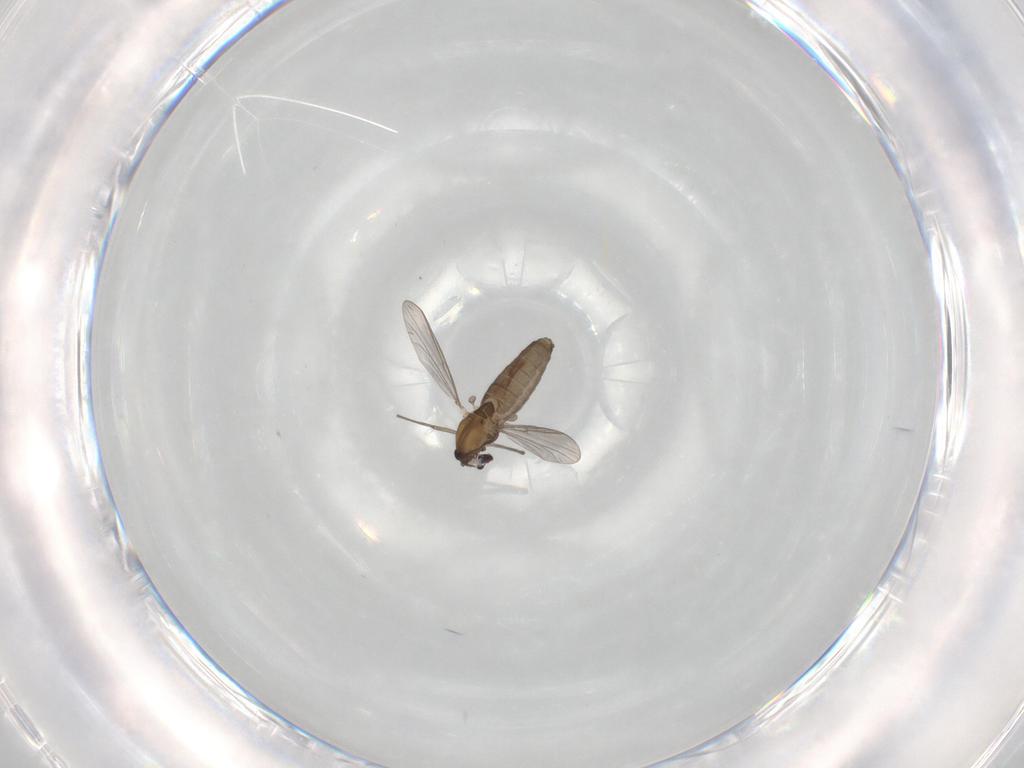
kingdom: Animalia
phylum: Arthropoda
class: Insecta
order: Diptera
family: Chironomidae
